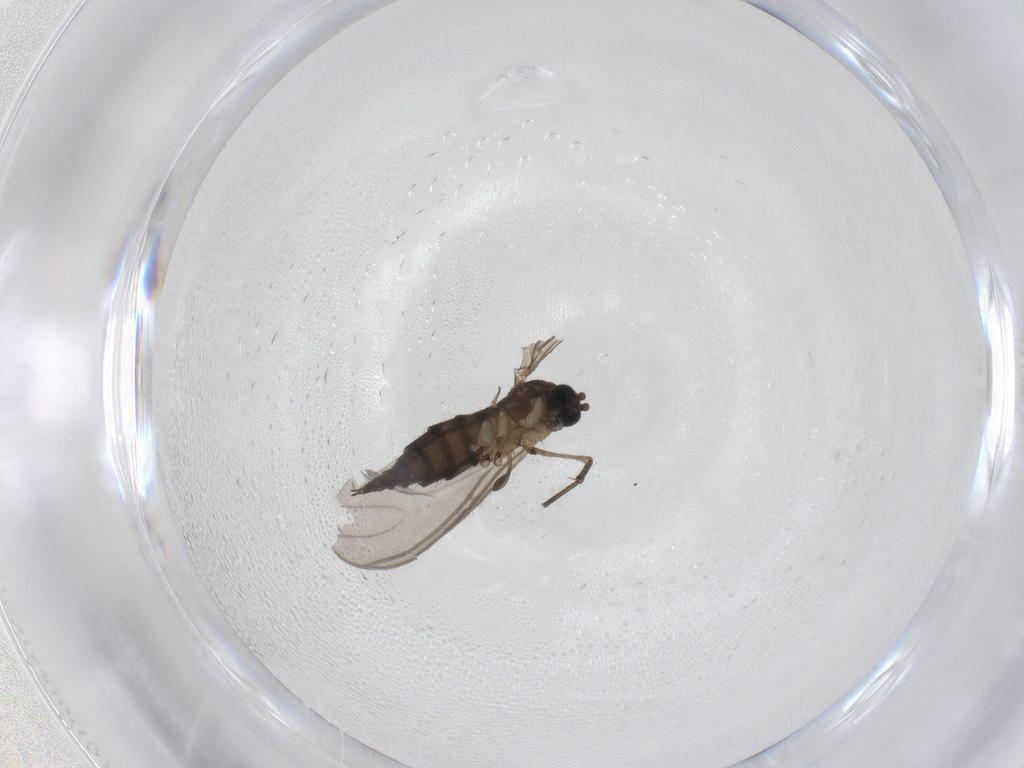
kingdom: Animalia
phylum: Arthropoda
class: Insecta
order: Diptera
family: Sciaridae
